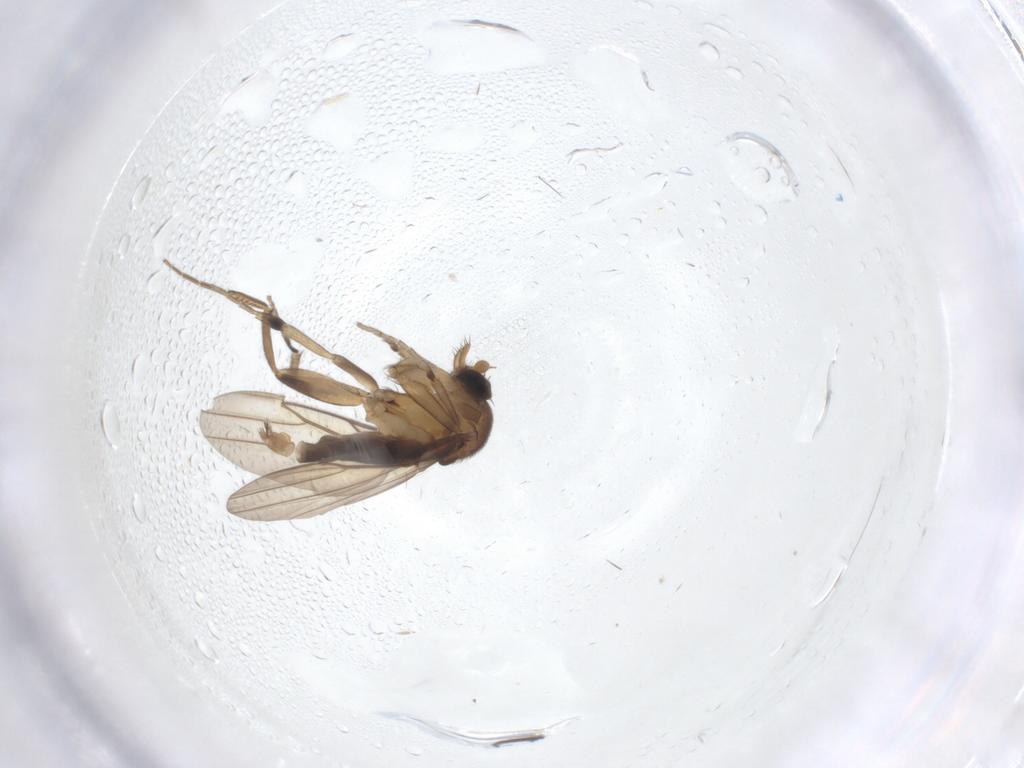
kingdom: Animalia
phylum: Arthropoda
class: Insecta
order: Diptera
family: Phoridae
